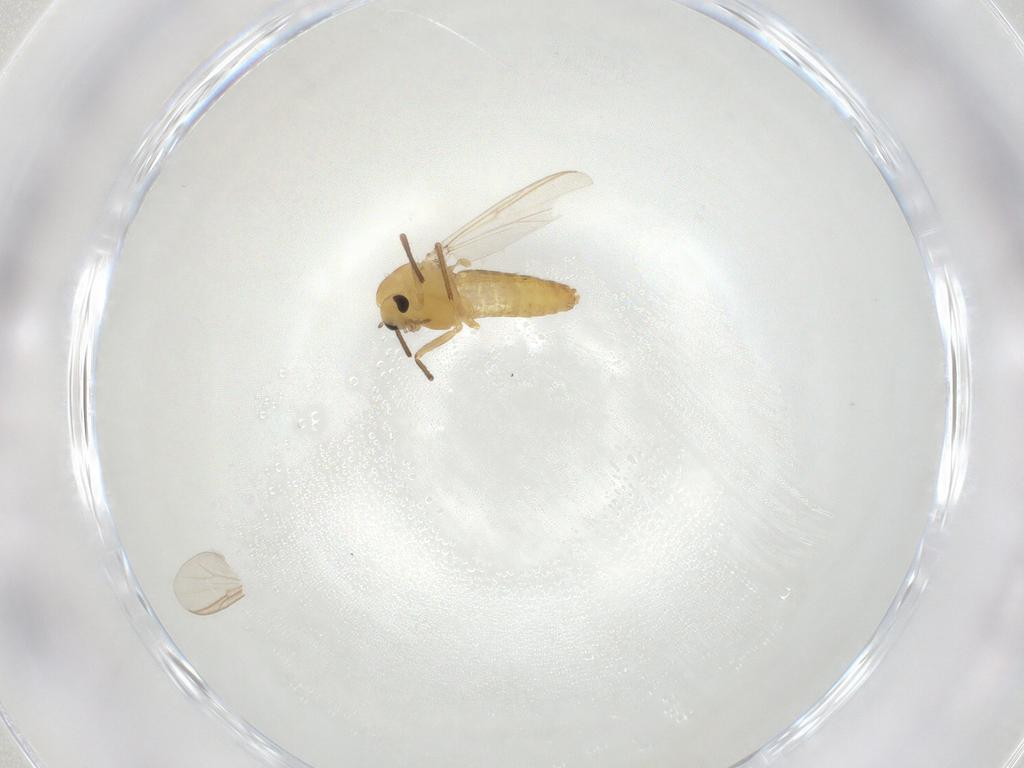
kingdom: Animalia
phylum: Arthropoda
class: Insecta
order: Diptera
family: Chironomidae
